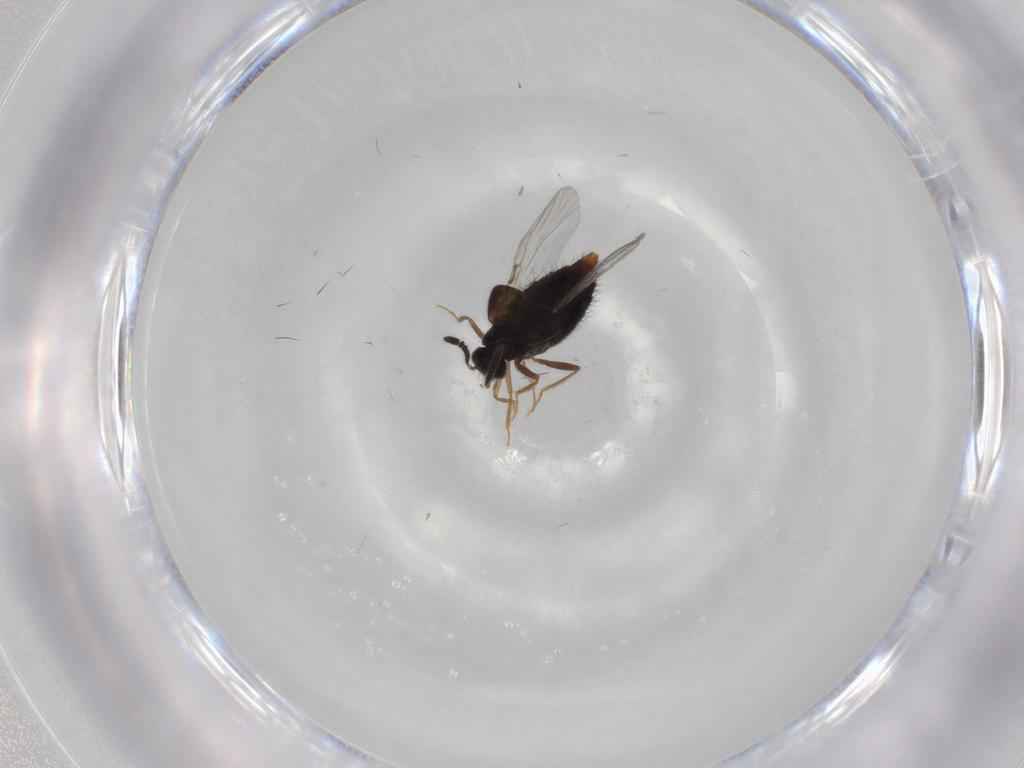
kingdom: Animalia
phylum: Arthropoda
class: Insecta
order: Coleoptera
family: Staphylinidae
